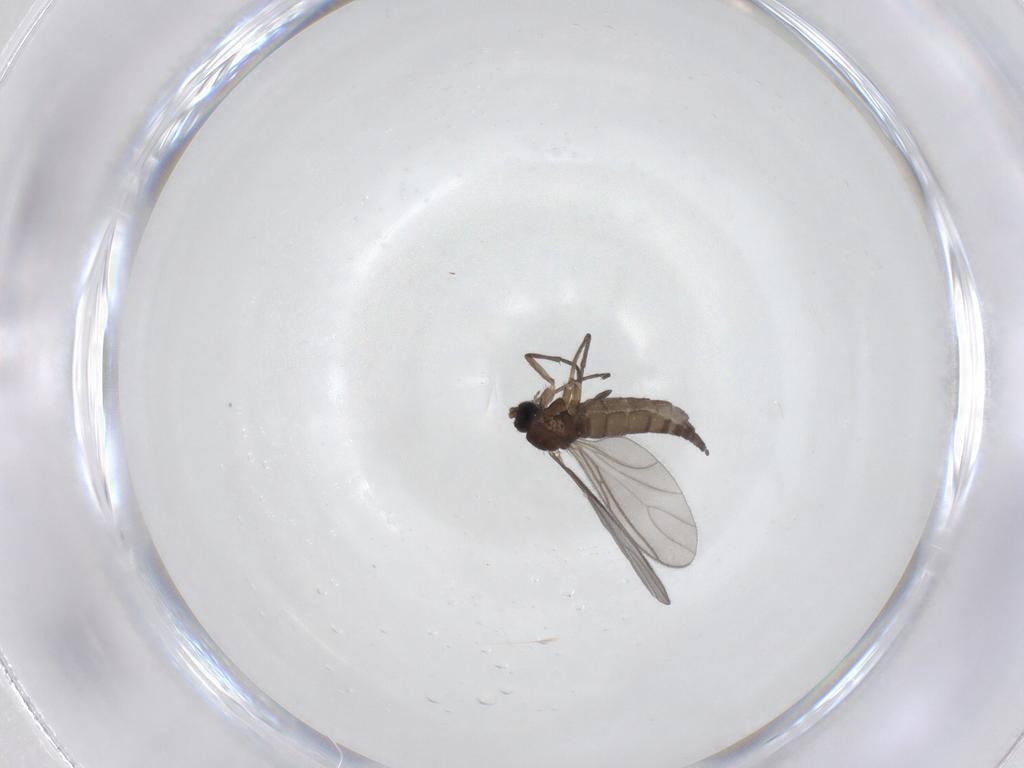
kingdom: Animalia
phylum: Arthropoda
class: Insecta
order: Diptera
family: Sciaridae
